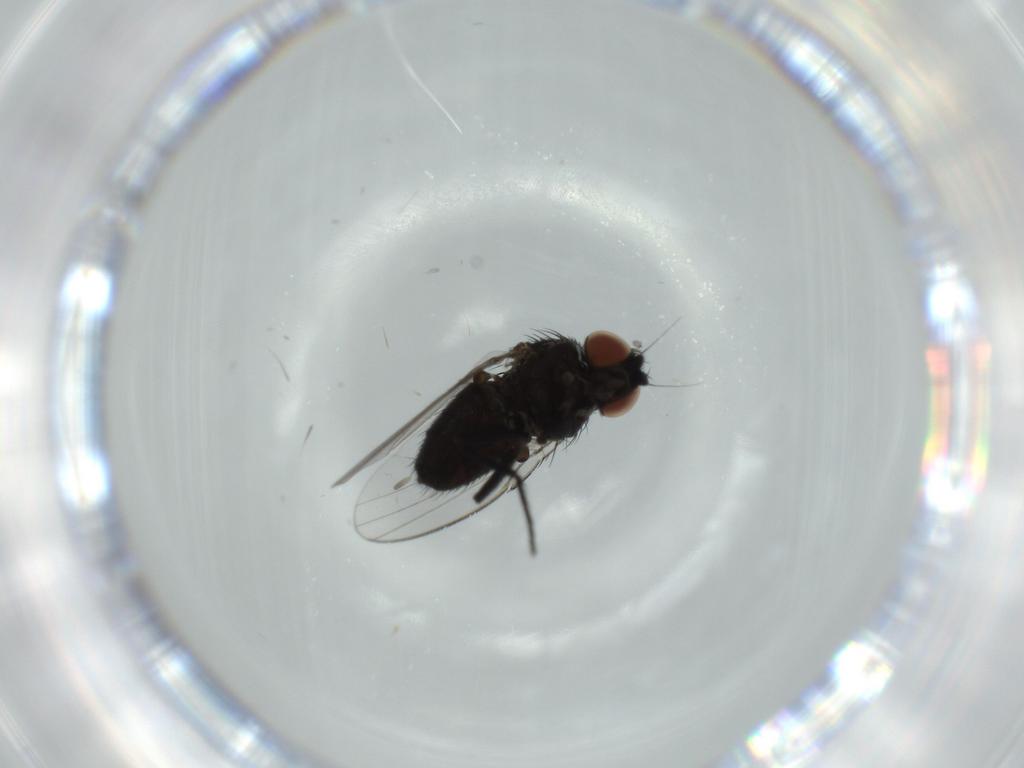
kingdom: Animalia
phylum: Arthropoda
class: Insecta
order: Diptera
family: Milichiidae
